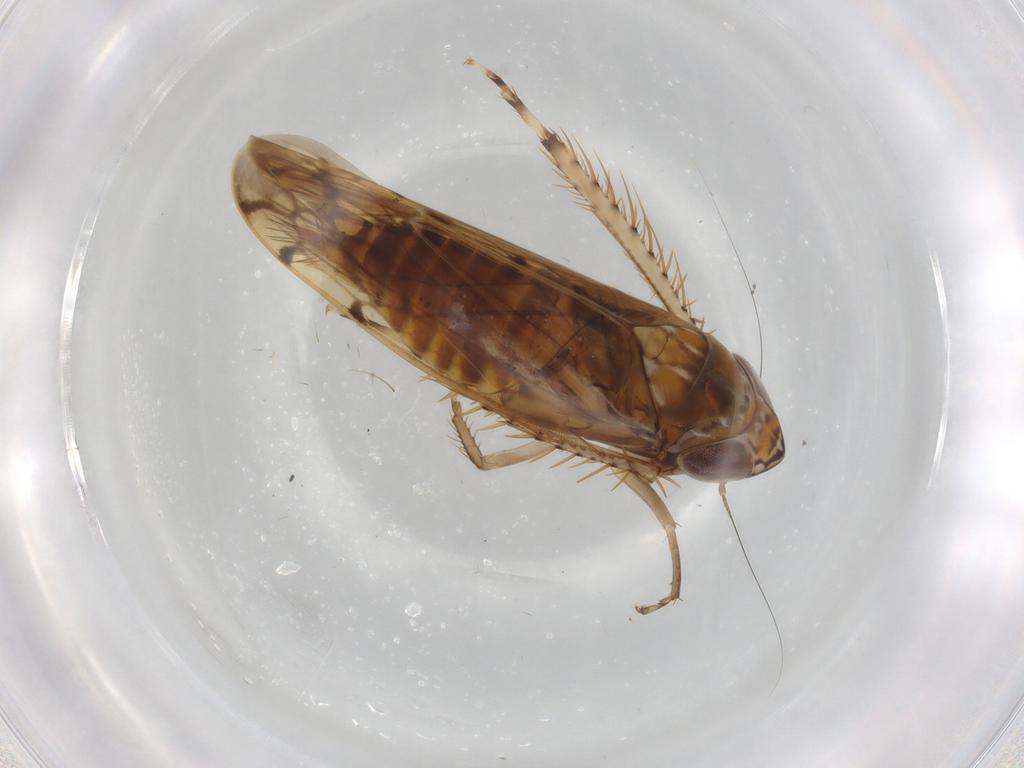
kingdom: Animalia
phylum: Arthropoda
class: Insecta
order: Hemiptera
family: Cicadellidae
